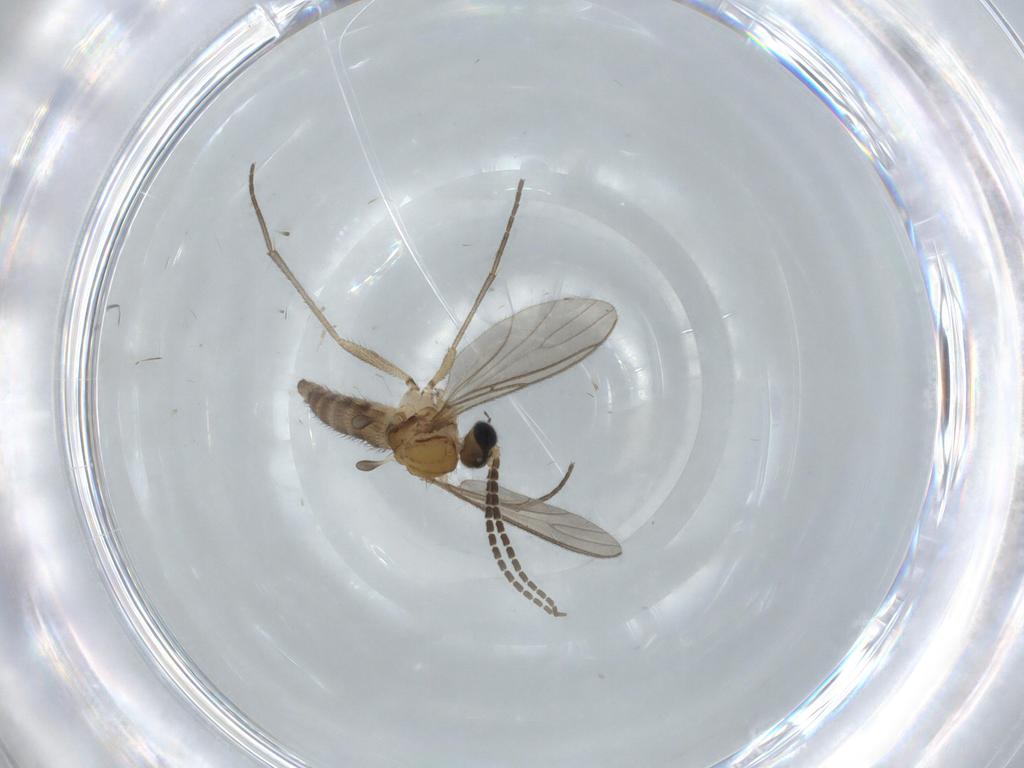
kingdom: Animalia
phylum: Arthropoda
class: Insecta
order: Diptera
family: Sciaridae
